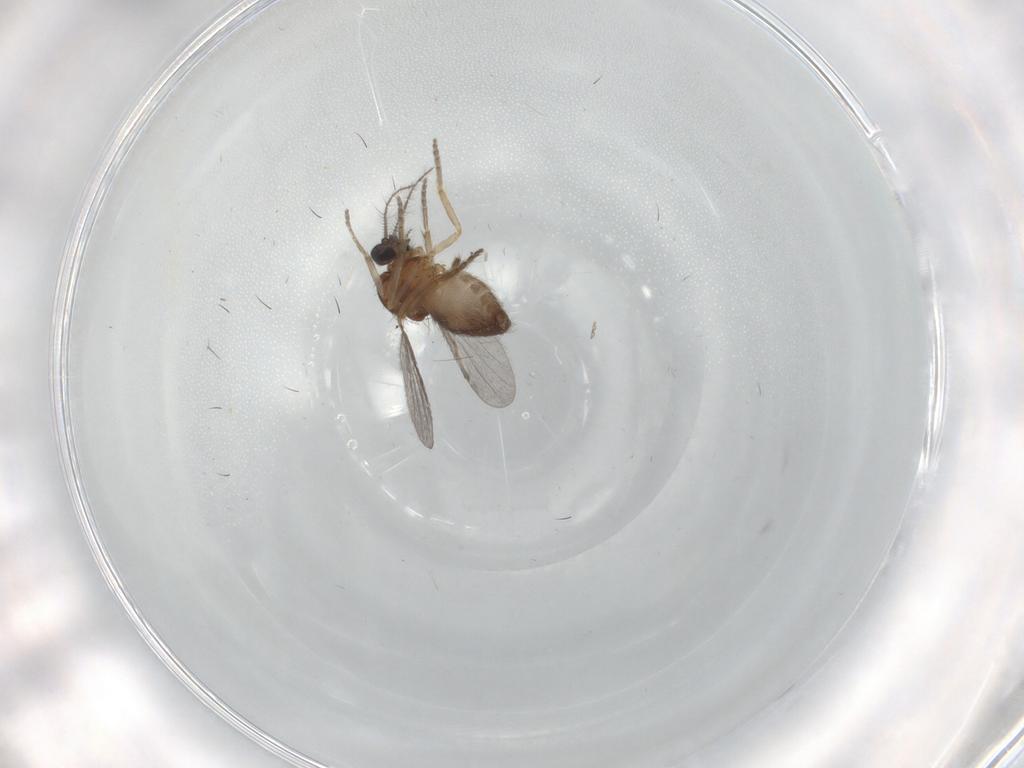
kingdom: Animalia
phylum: Arthropoda
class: Insecta
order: Diptera
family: Ceratopogonidae
